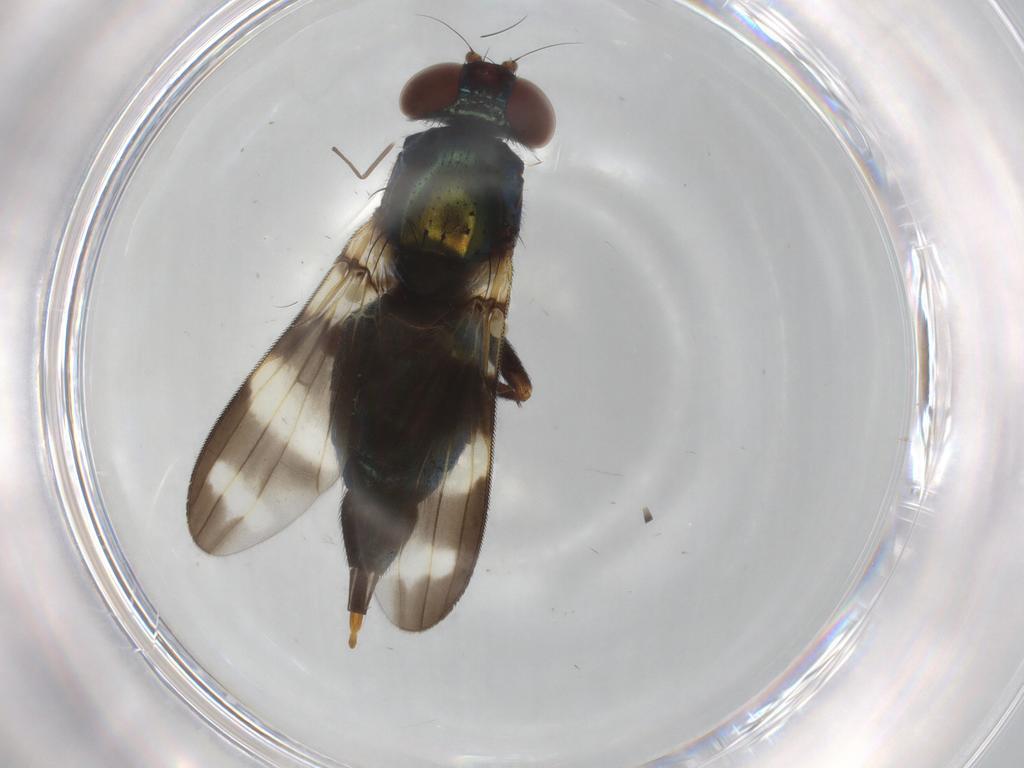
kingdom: Animalia
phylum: Arthropoda
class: Insecta
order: Diptera
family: Ulidiidae
